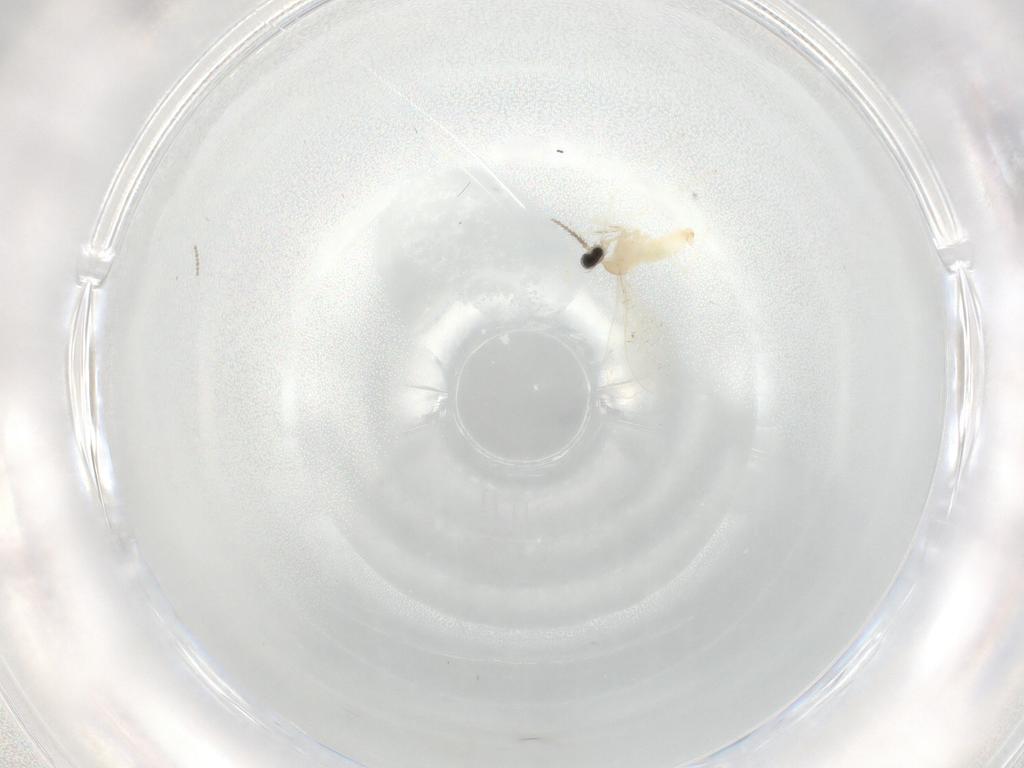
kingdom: Animalia
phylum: Arthropoda
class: Insecta
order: Diptera
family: Cecidomyiidae
